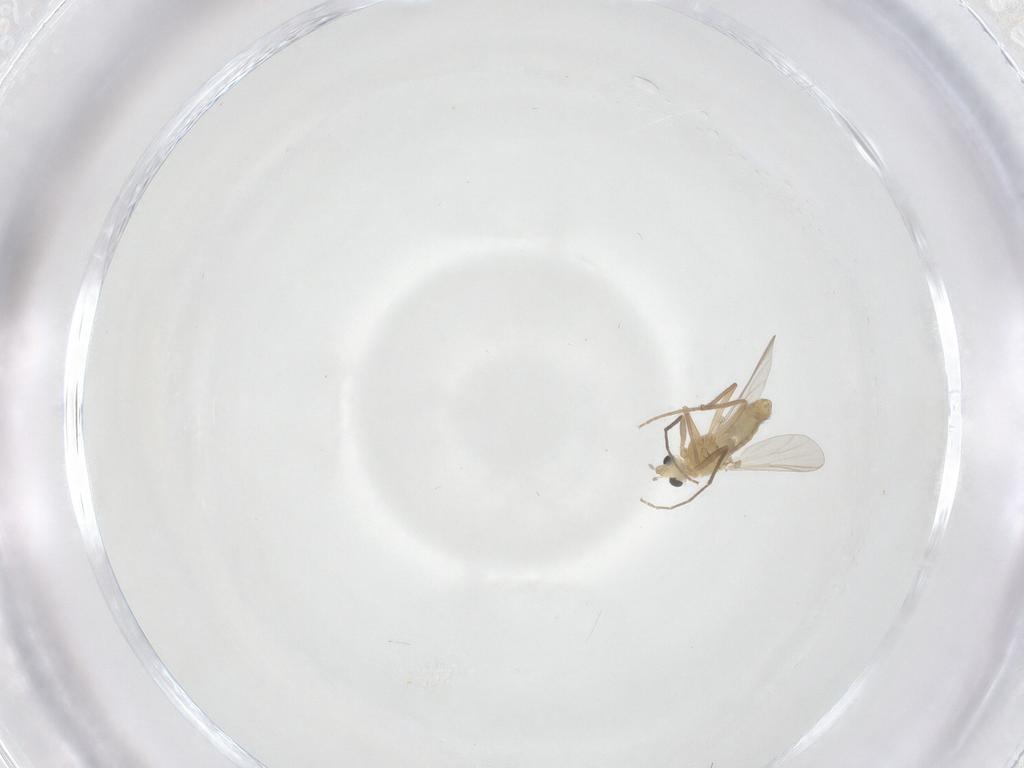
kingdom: Animalia
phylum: Arthropoda
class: Insecta
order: Diptera
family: Chironomidae
